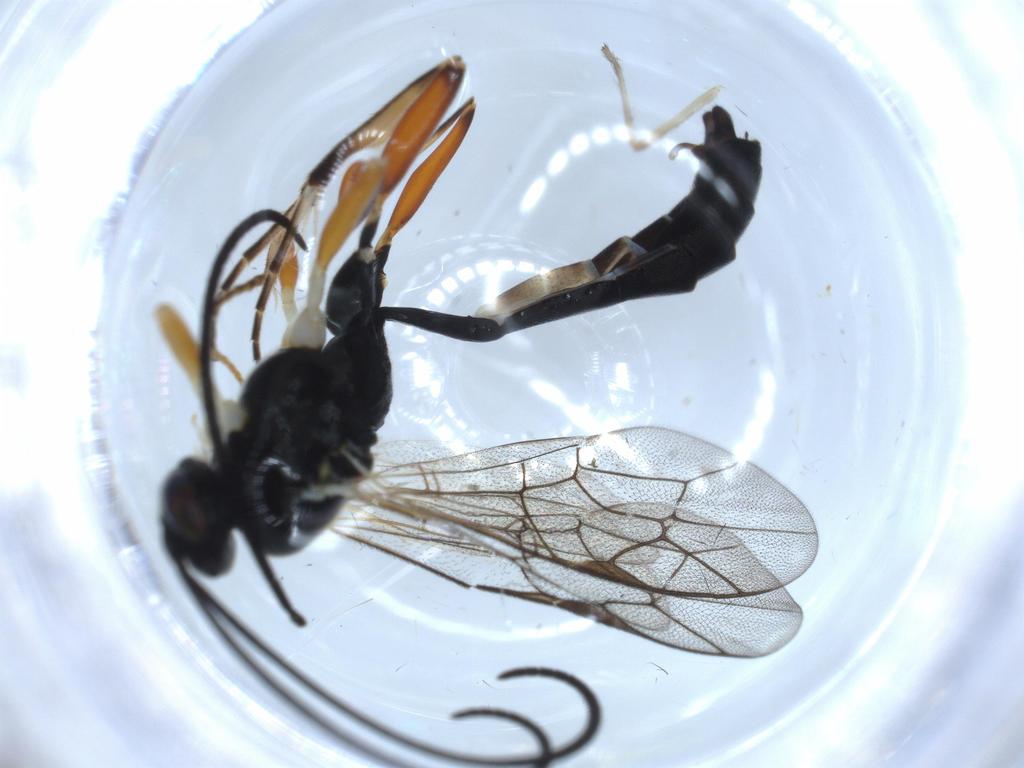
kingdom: Animalia
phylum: Arthropoda
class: Insecta
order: Hymenoptera
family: Ichneumonidae
